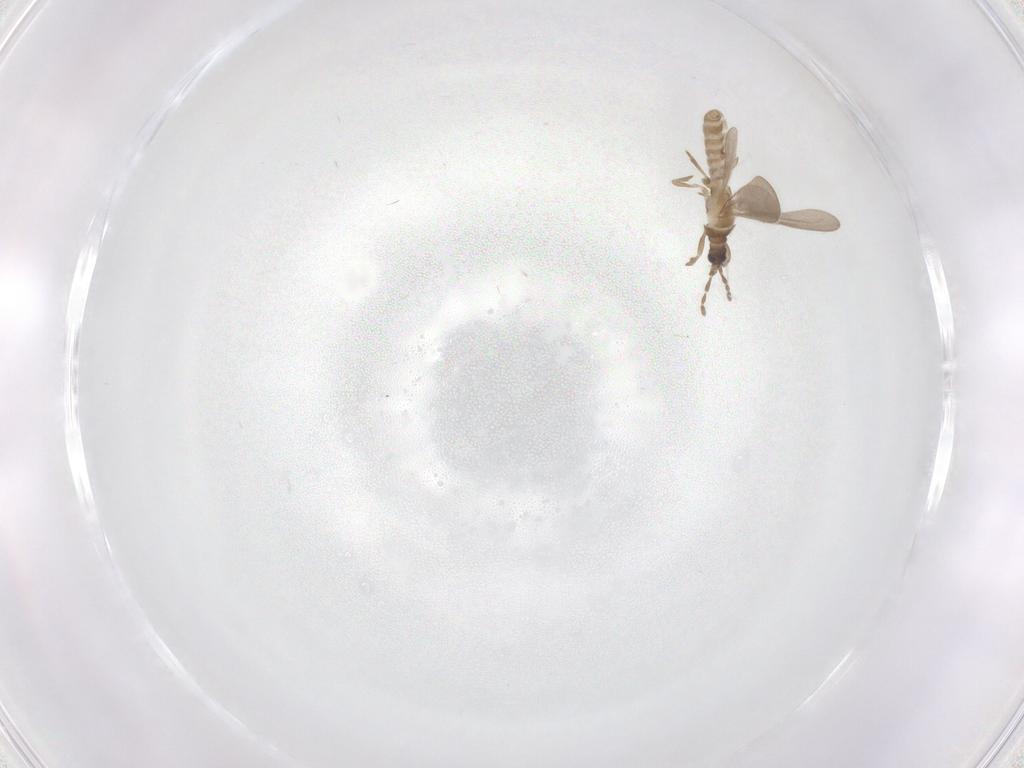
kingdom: Animalia
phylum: Arthropoda
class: Insecta
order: Hemiptera
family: Enicocephalidae
